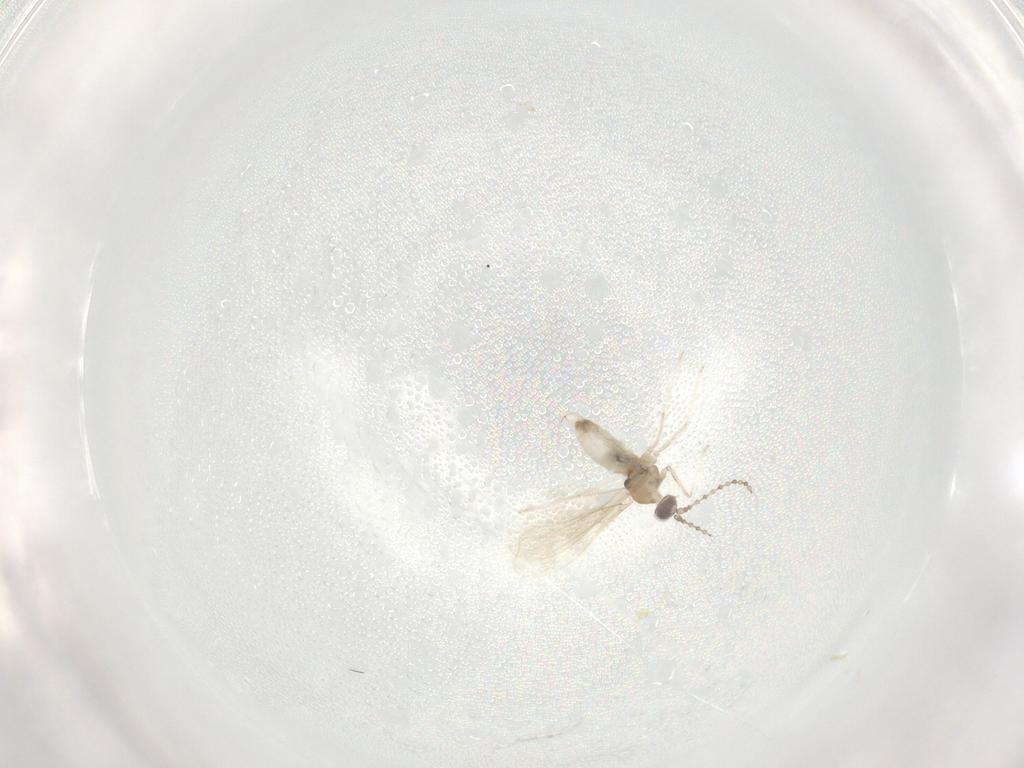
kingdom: Animalia
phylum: Arthropoda
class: Insecta
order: Diptera
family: Cecidomyiidae
